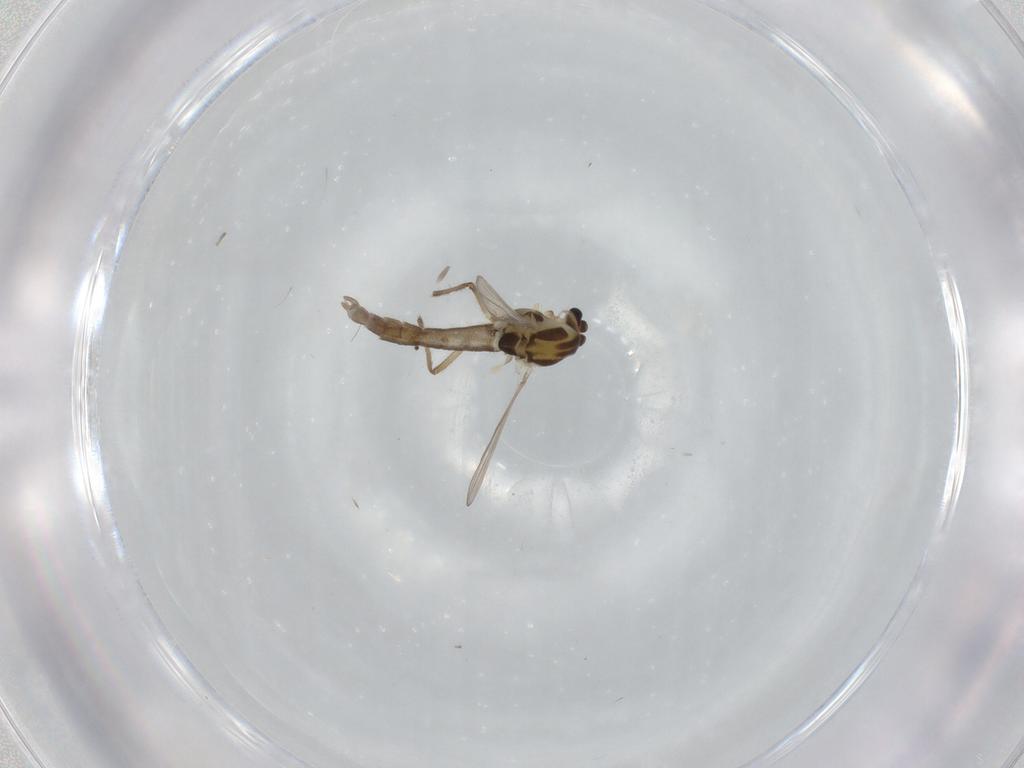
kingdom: Animalia
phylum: Arthropoda
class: Insecta
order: Diptera
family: Chironomidae
